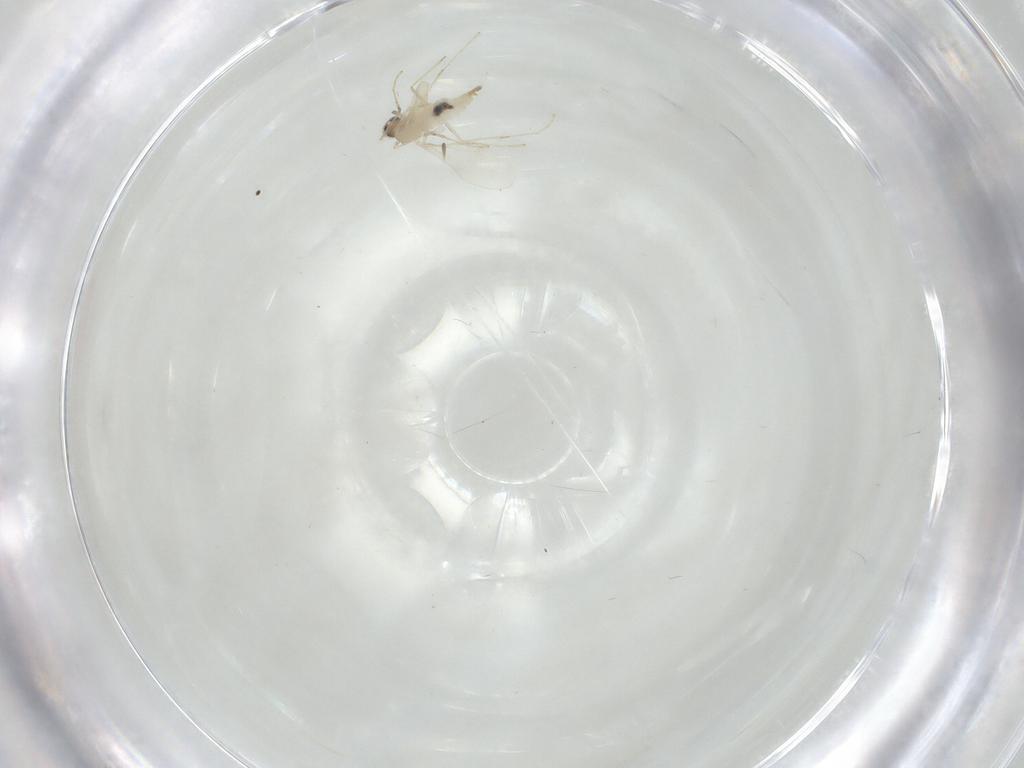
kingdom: Animalia
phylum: Arthropoda
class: Insecta
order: Diptera
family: Cecidomyiidae
